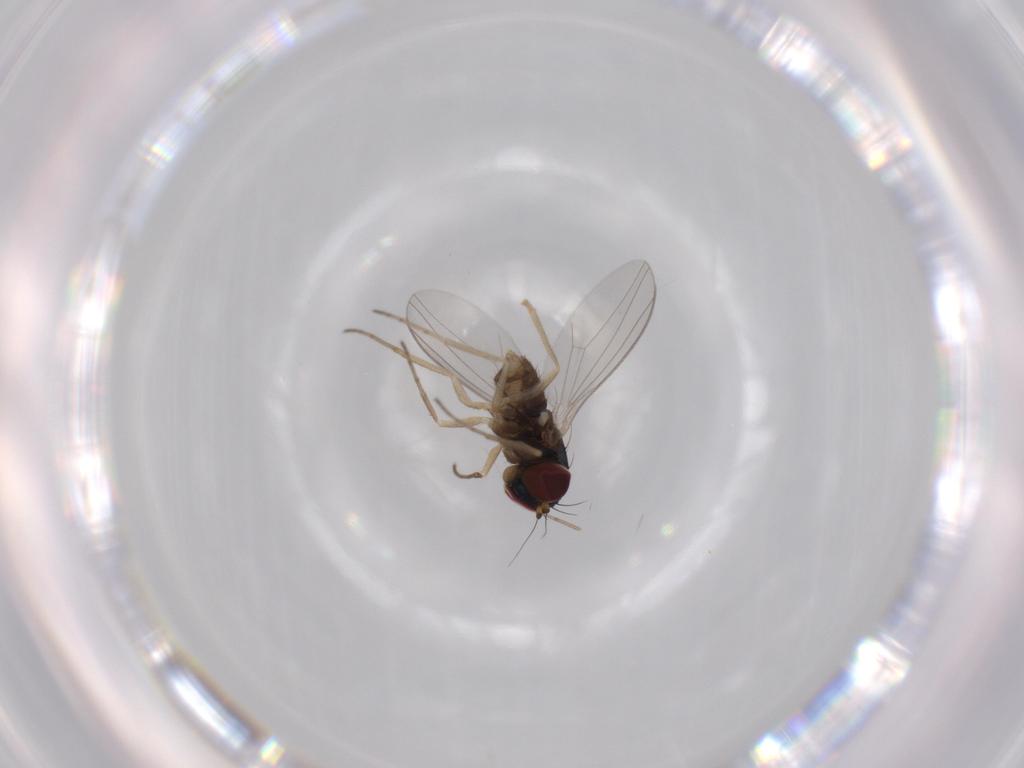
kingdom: Animalia
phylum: Arthropoda
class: Insecta
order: Diptera
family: Dolichopodidae
